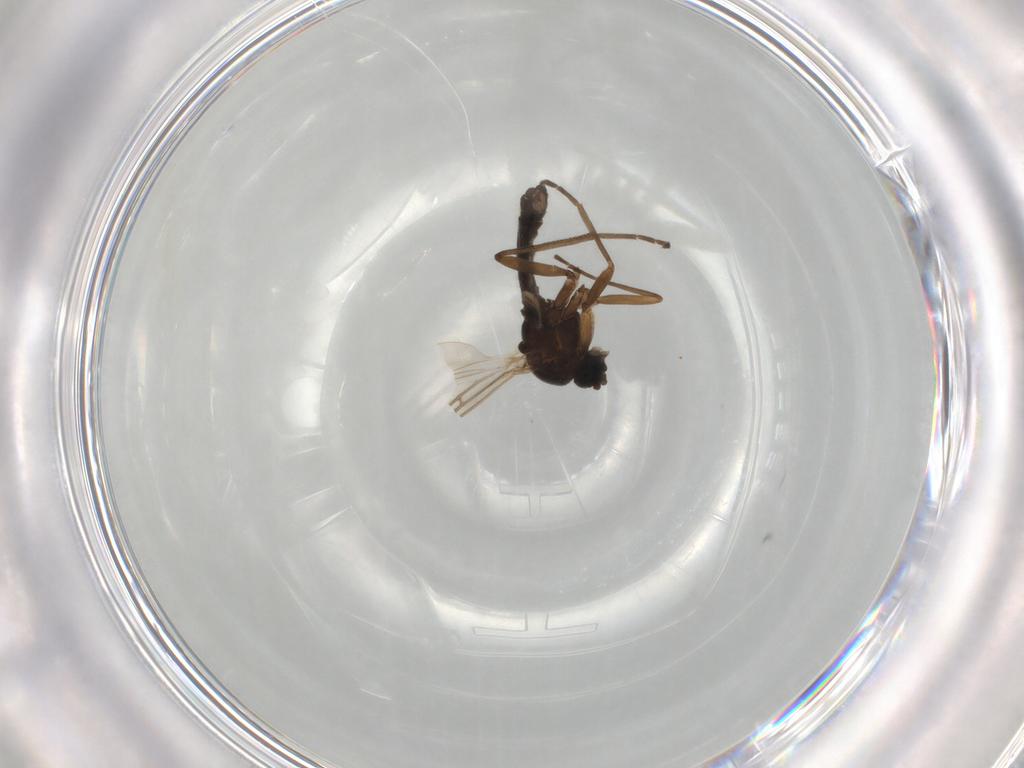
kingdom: Animalia
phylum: Arthropoda
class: Insecta
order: Diptera
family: Sciaridae
